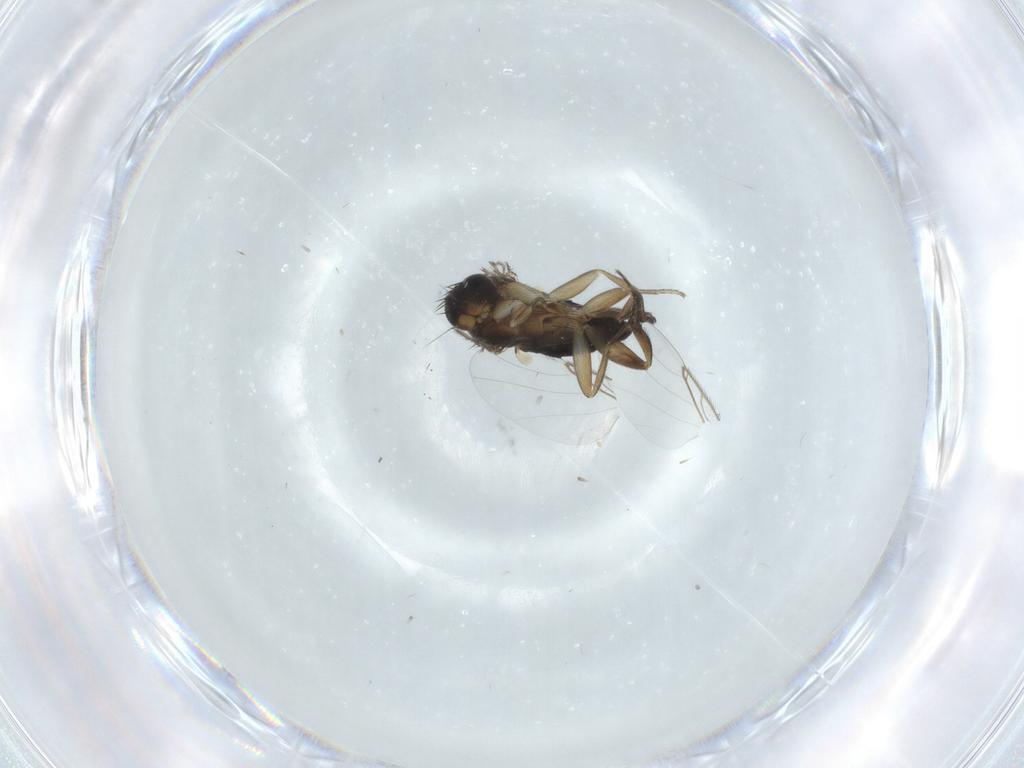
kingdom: Animalia
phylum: Arthropoda
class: Insecta
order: Diptera
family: Phoridae
